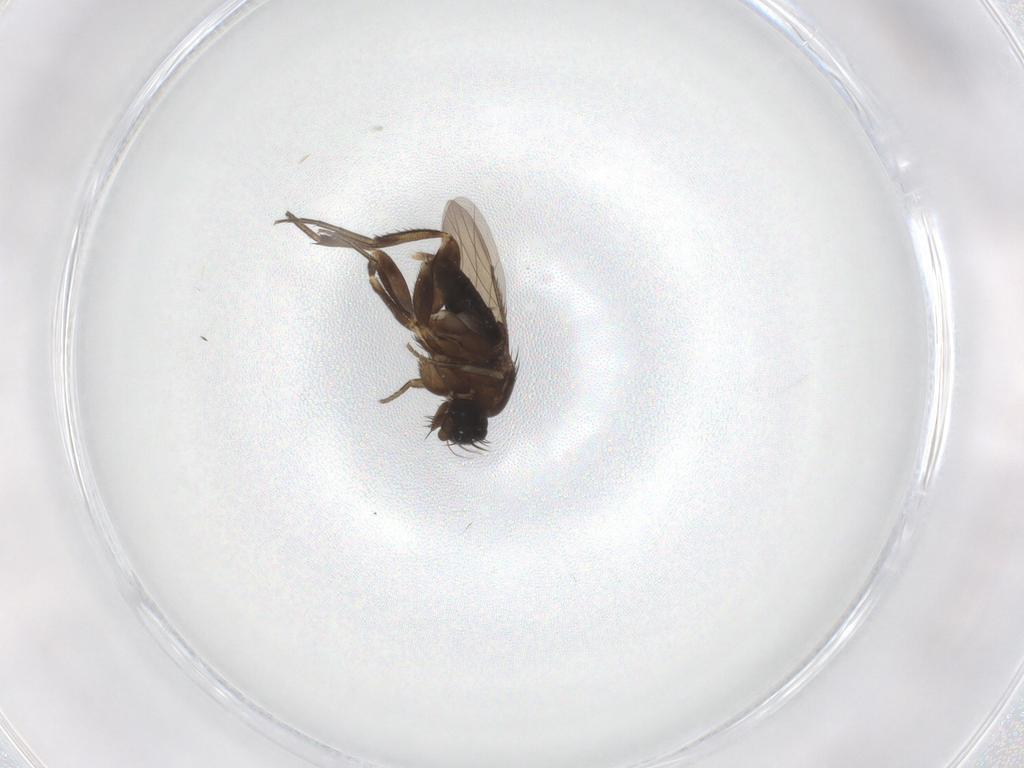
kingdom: Animalia
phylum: Arthropoda
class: Insecta
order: Diptera
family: Phoridae
